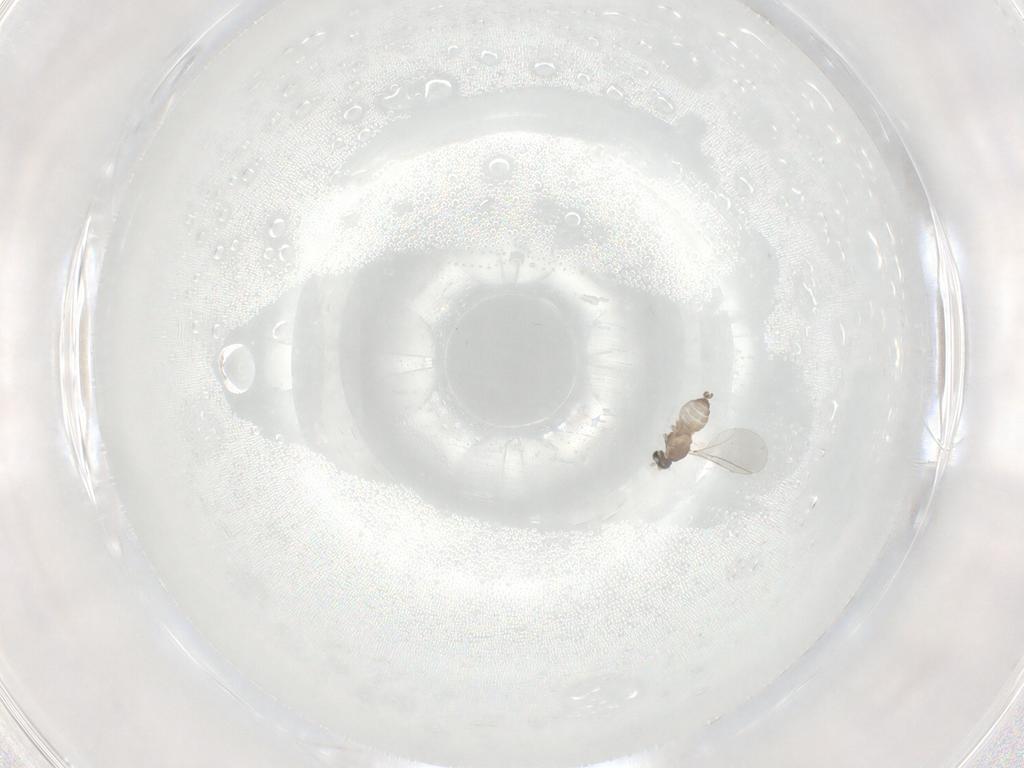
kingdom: Animalia
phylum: Arthropoda
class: Insecta
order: Diptera
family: Cecidomyiidae
